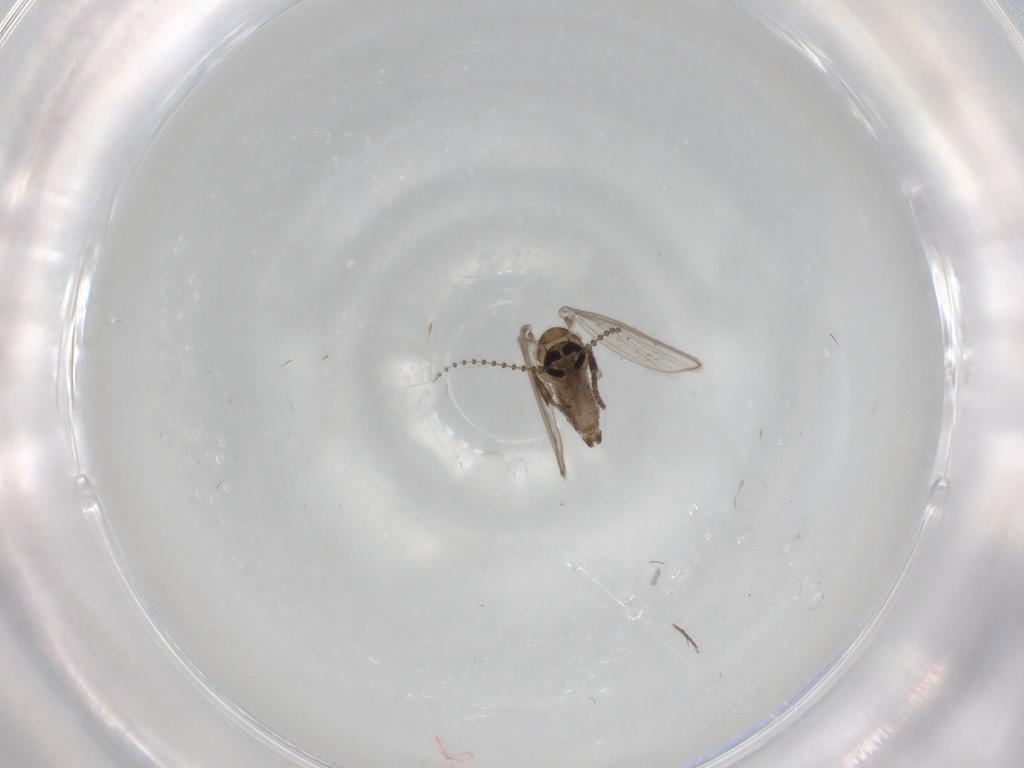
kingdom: Animalia
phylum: Arthropoda
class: Insecta
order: Diptera
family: Psychodidae
